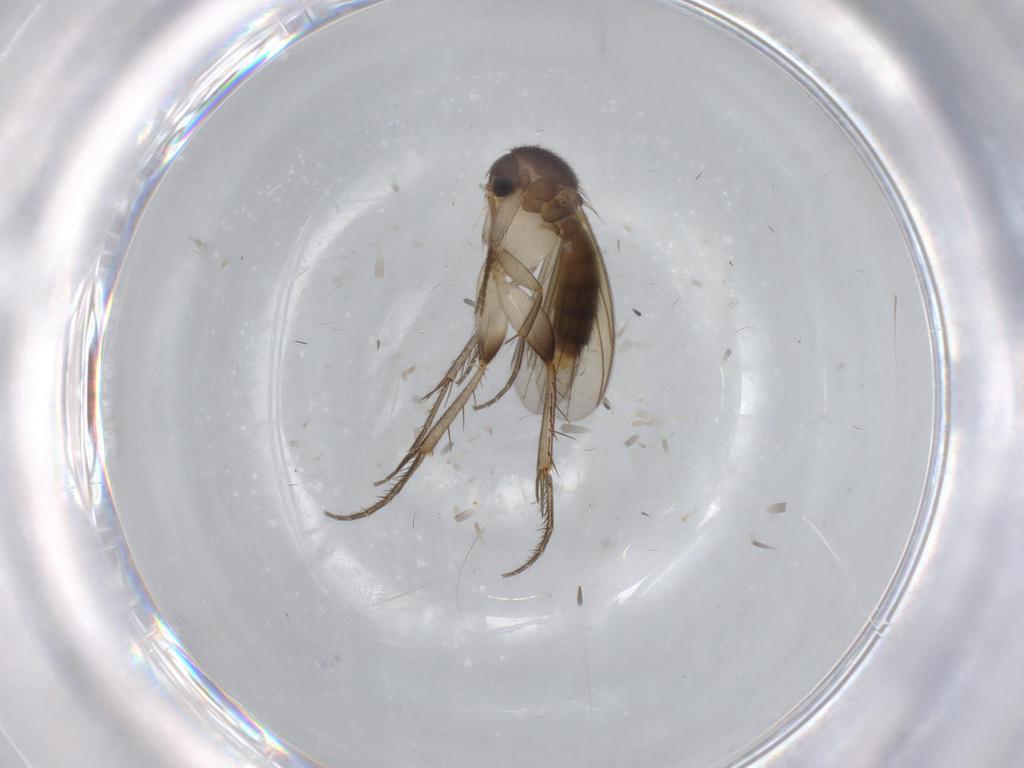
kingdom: Animalia
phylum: Arthropoda
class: Insecta
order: Diptera
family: Mycetophilidae
